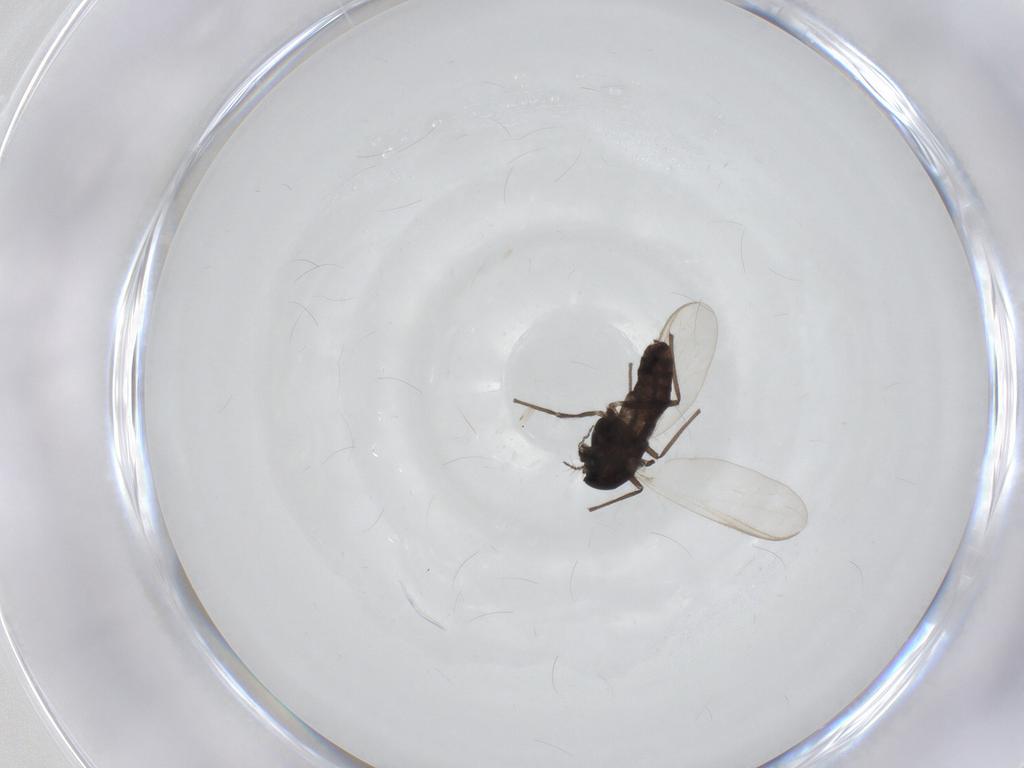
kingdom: Animalia
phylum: Arthropoda
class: Insecta
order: Diptera
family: Chironomidae
